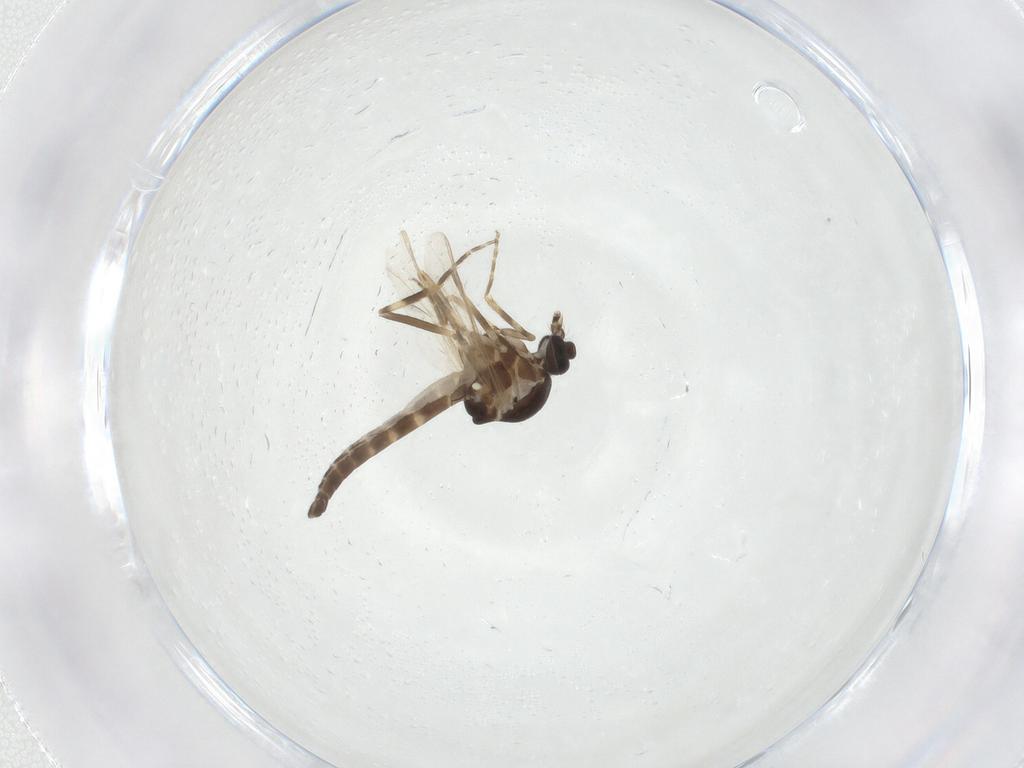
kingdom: Animalia
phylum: Arthropoda
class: Insecta
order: Diptera
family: Ceratopogonidae
